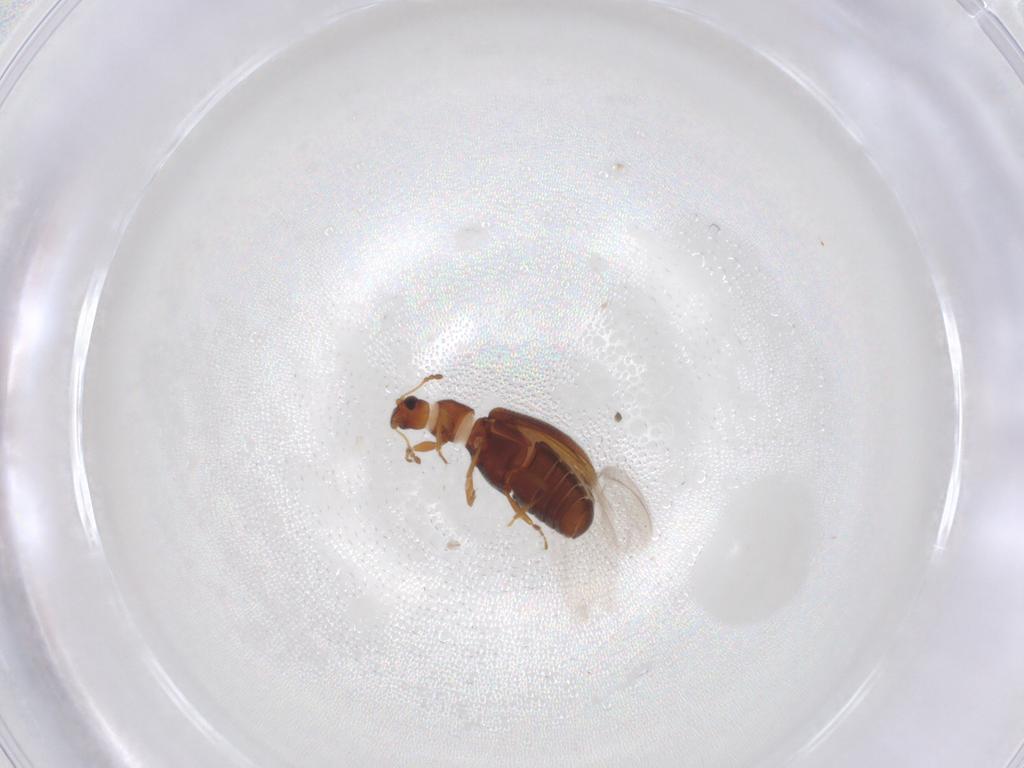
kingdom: Animalia
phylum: Arthropoda
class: Insecta
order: Coleoptera
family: Latridiidae
